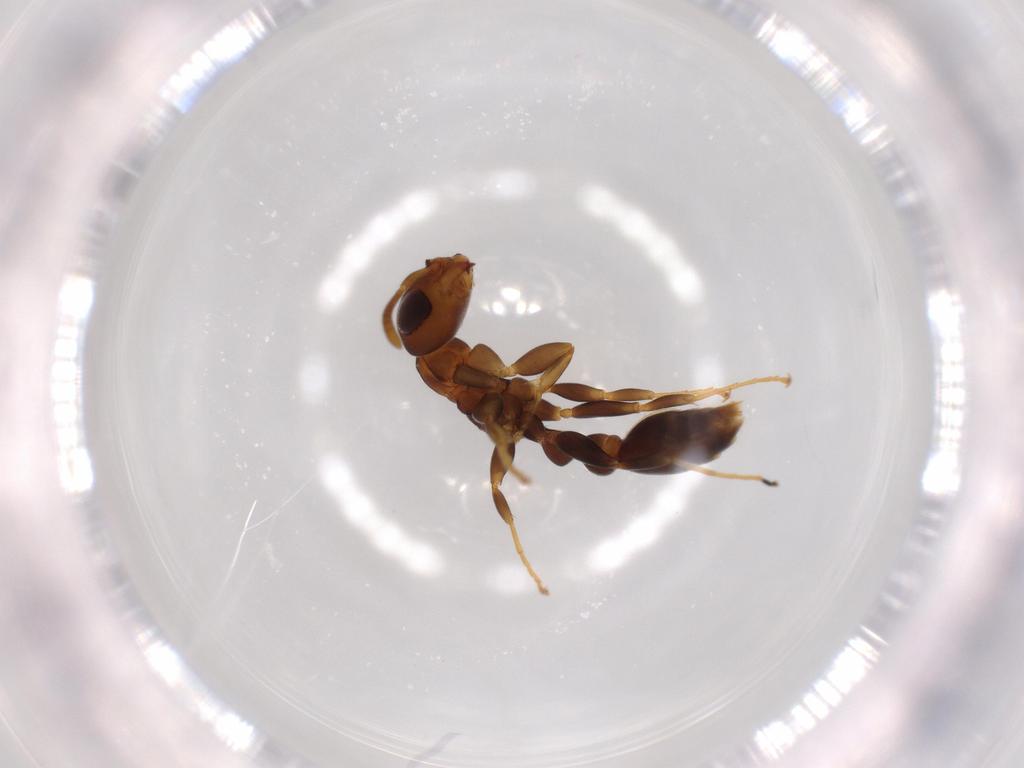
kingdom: Animalia
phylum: Arthropoda
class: Insecta
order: Hymenoptera
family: Formicidae
